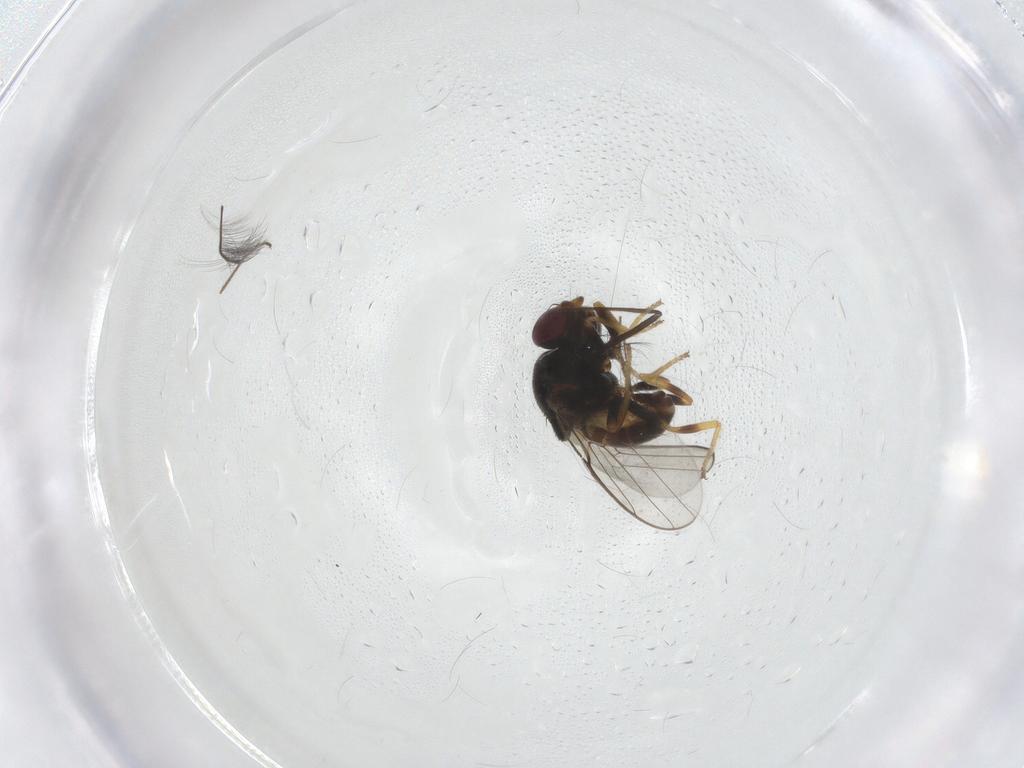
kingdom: Animalia
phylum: Arthropoda
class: Insecta
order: Diptera
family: Chloropidae
